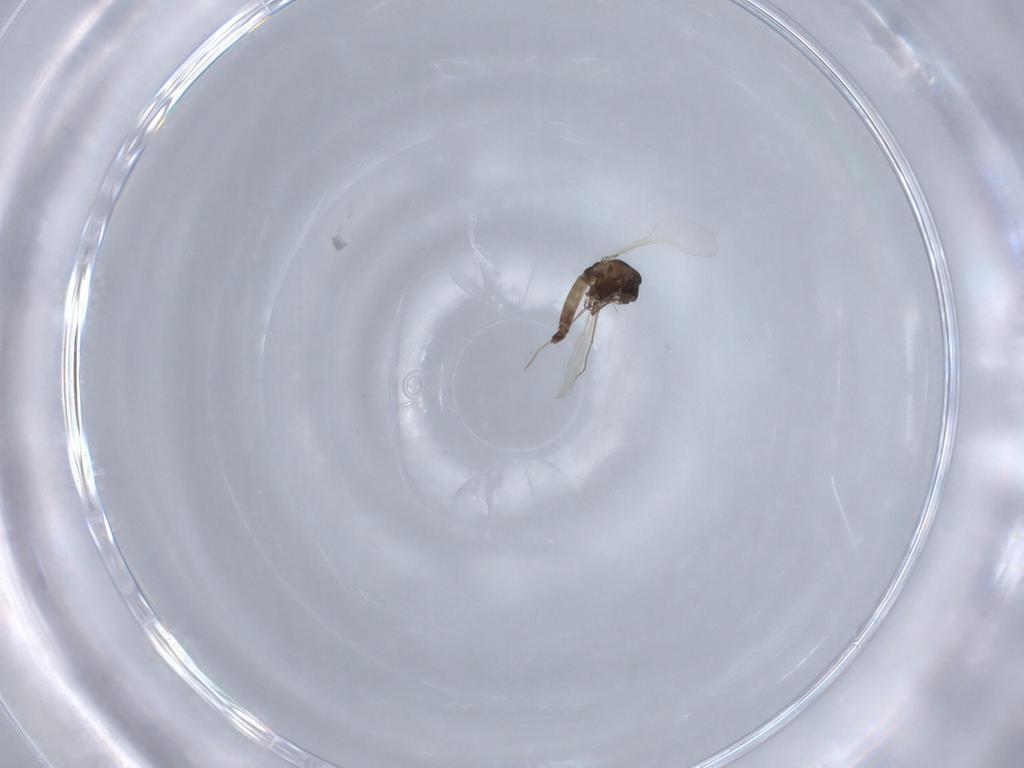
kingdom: Animalia
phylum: Arthropoda
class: Insecta
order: Diptera
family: Chironomidae
